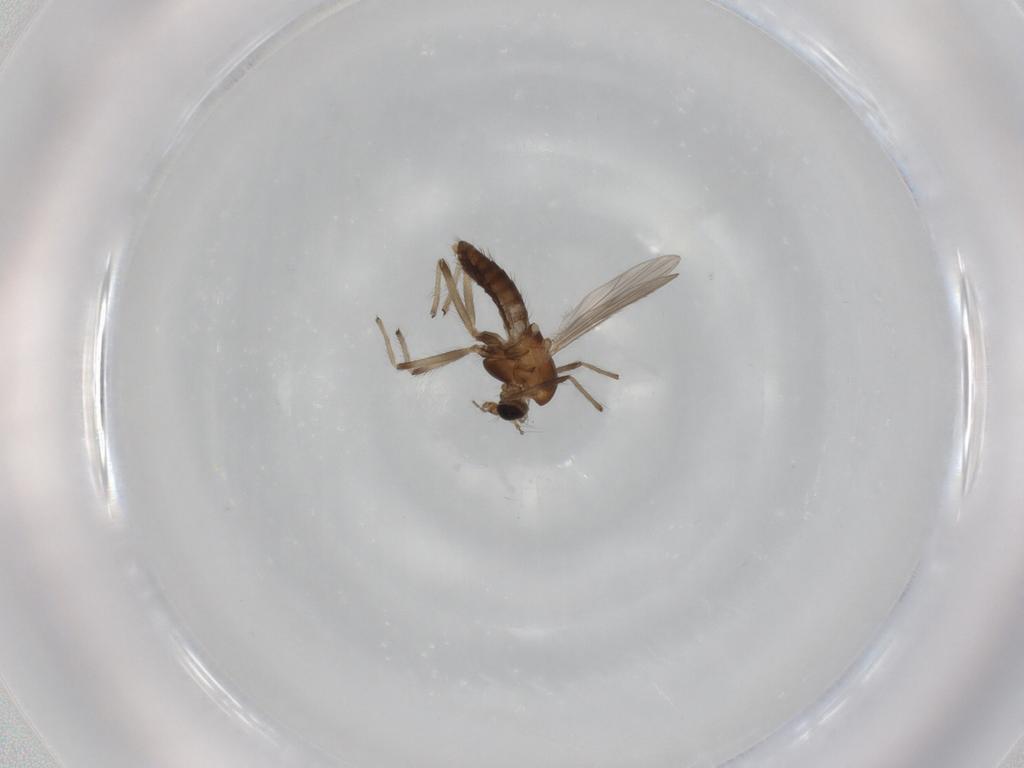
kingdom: Animalia
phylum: Arthropoda
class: Insecta
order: Diptera
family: Chironomidae
